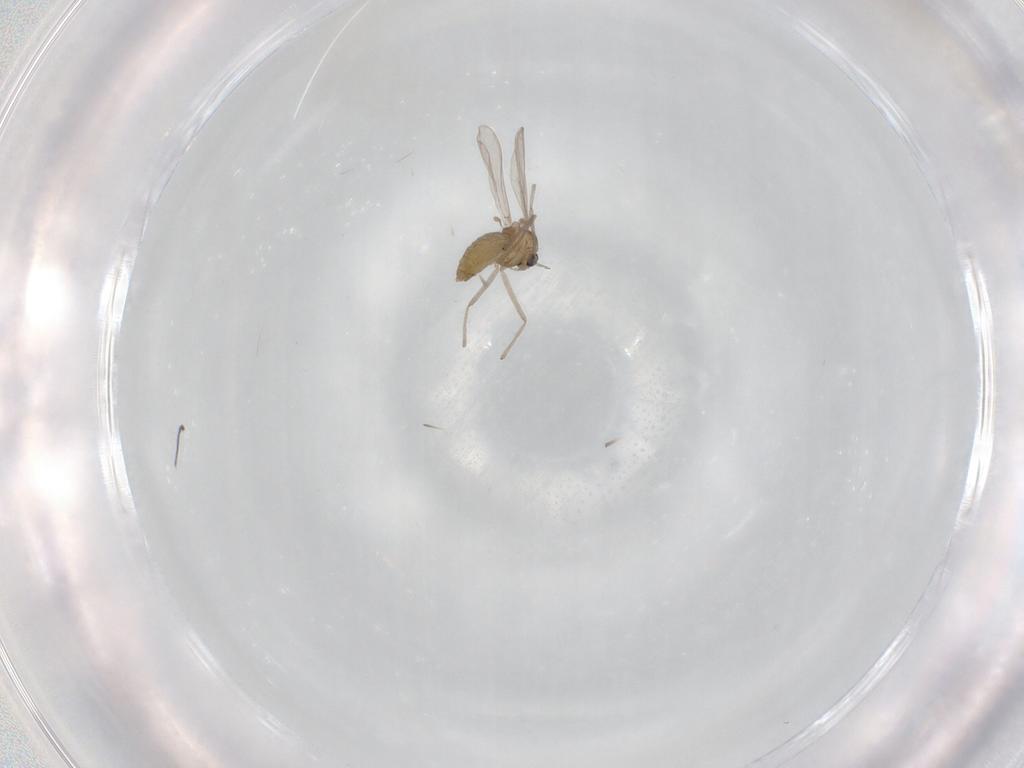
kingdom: Animalia
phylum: Arthropoda
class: Insecta
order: Diptera
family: Chironomidae
